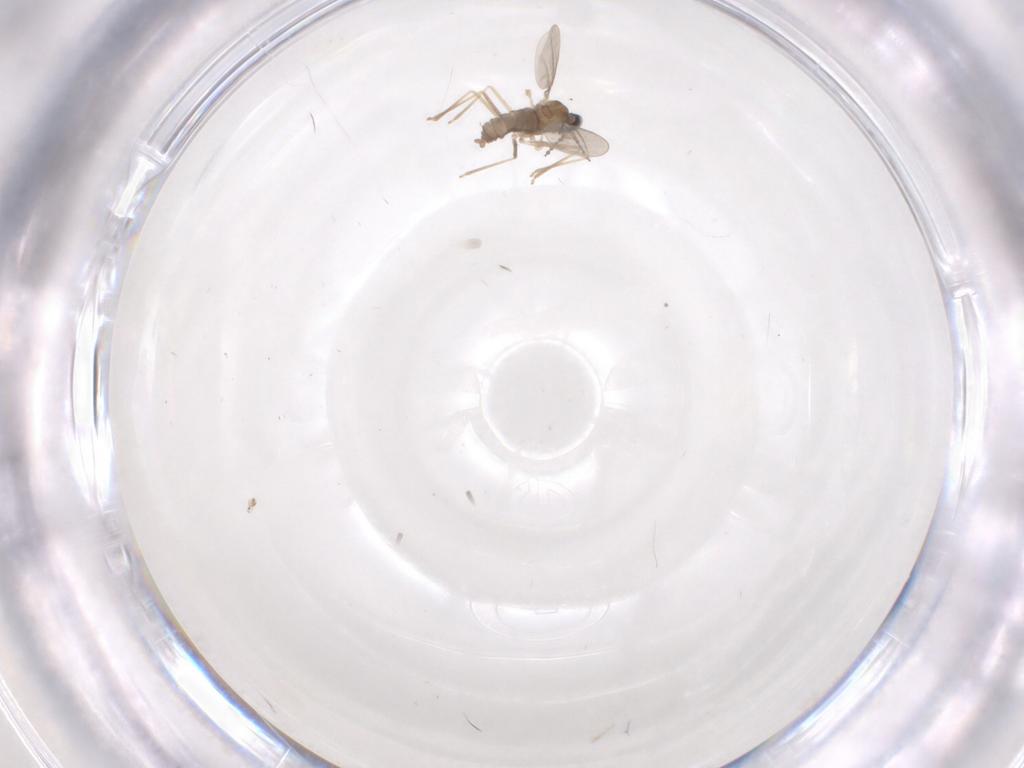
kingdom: Animalia
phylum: Arthropoda
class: Insecta
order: Diptera
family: Cecidomyiidae
